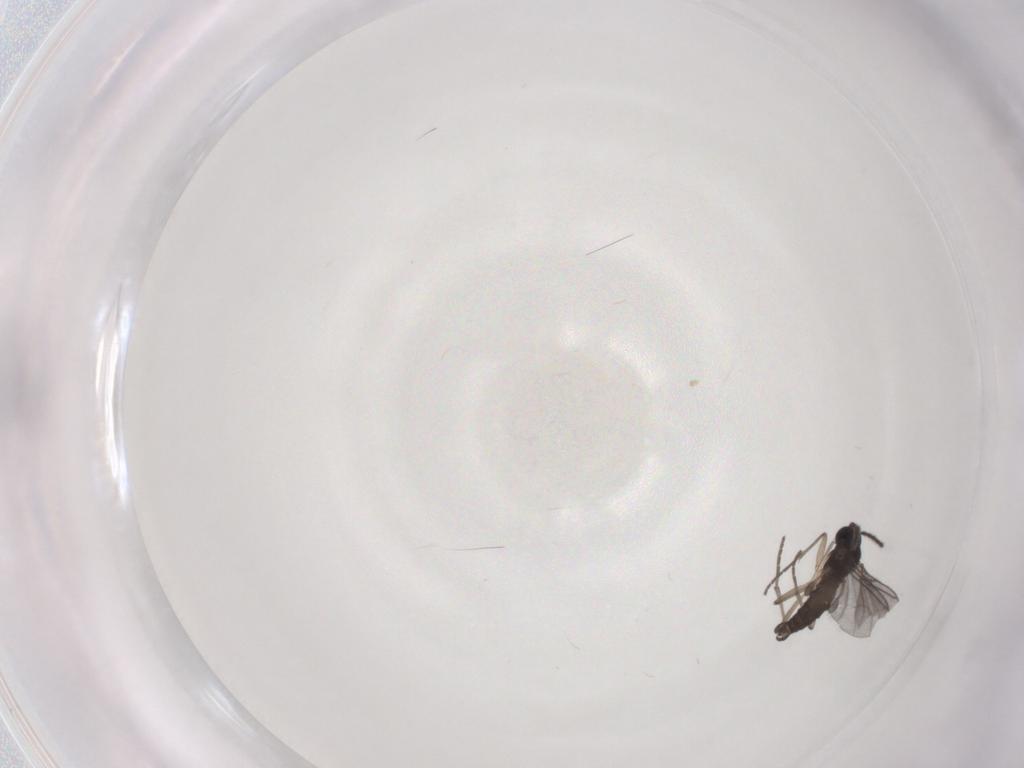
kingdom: Animalia
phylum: Arthropoda
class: Insecta
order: Diptera
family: Sciaridae
